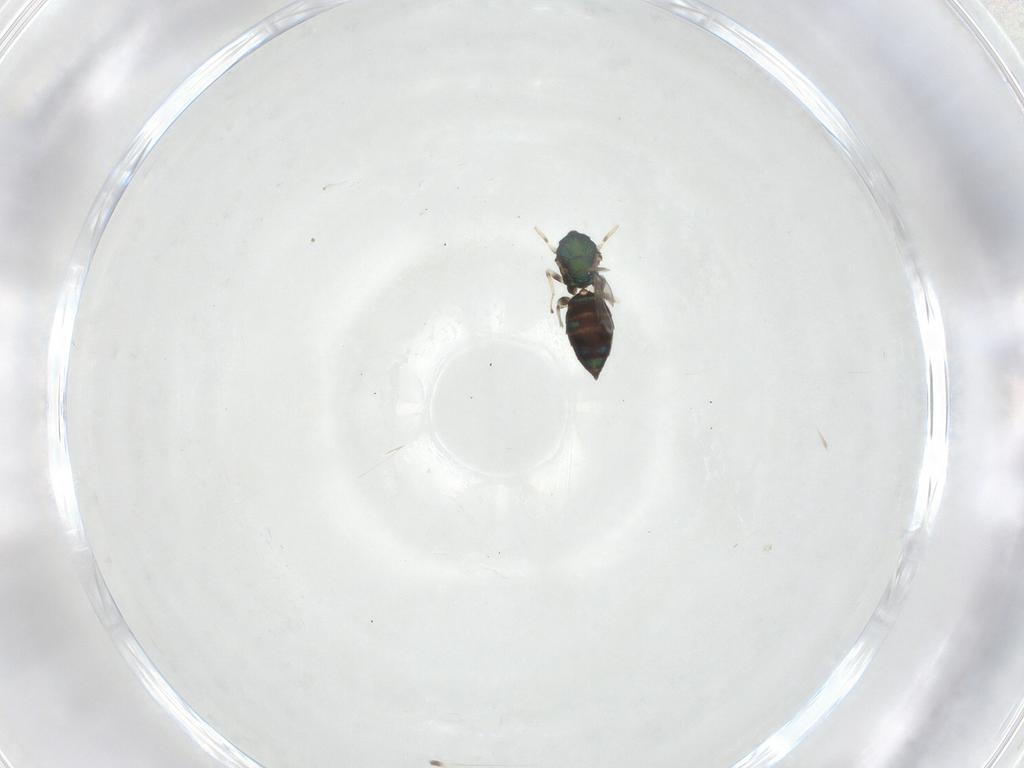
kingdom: Animalia
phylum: Arthropoda
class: Insecta
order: Hymenoptera
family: Eulophidae
